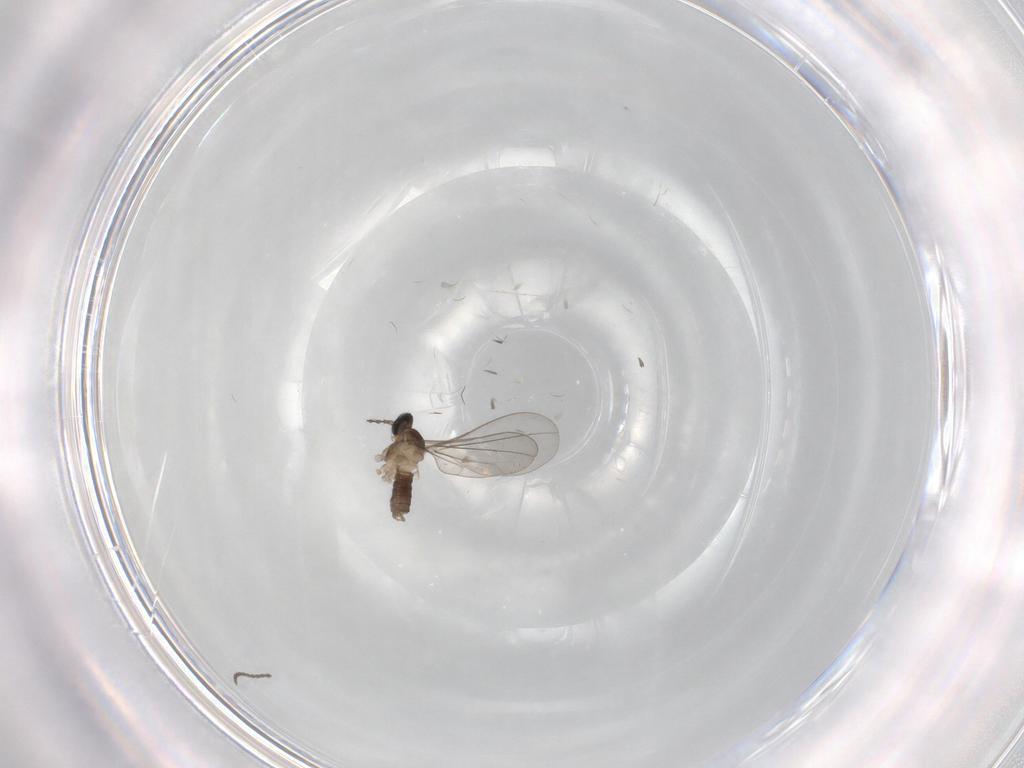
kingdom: Animalia
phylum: Arthropoda
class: Insecta
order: Diptera
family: Cecidomyiidae
